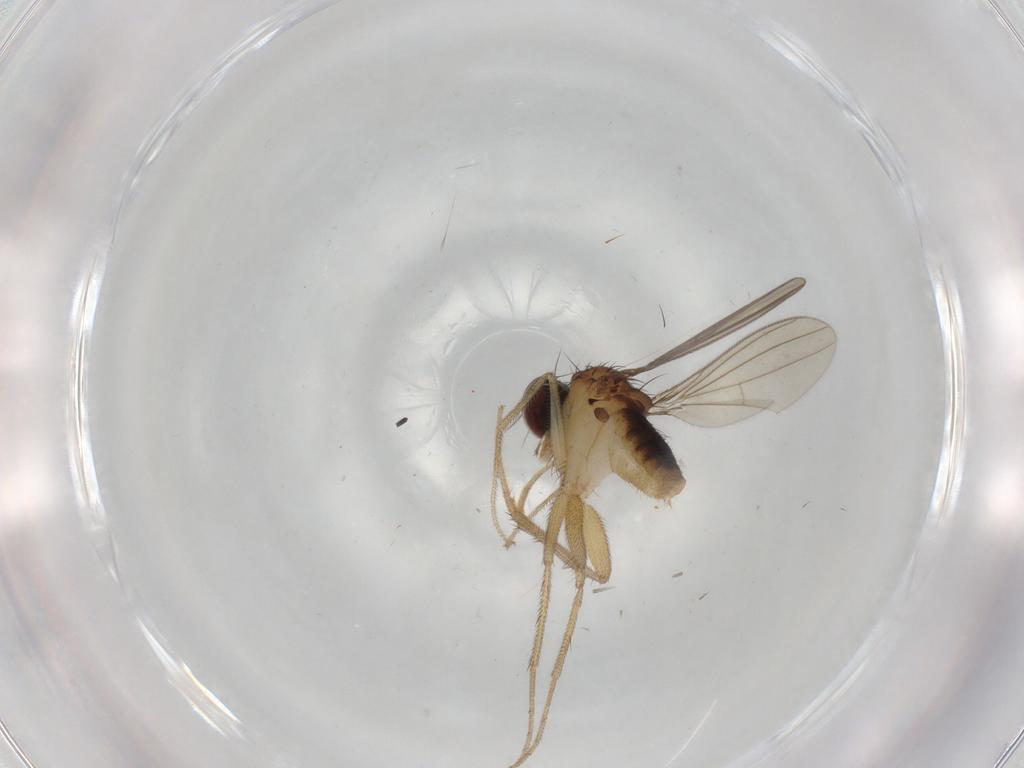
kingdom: Animalia
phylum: Arthropoda
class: Insecta
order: Diptera
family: Dolichopodidae
